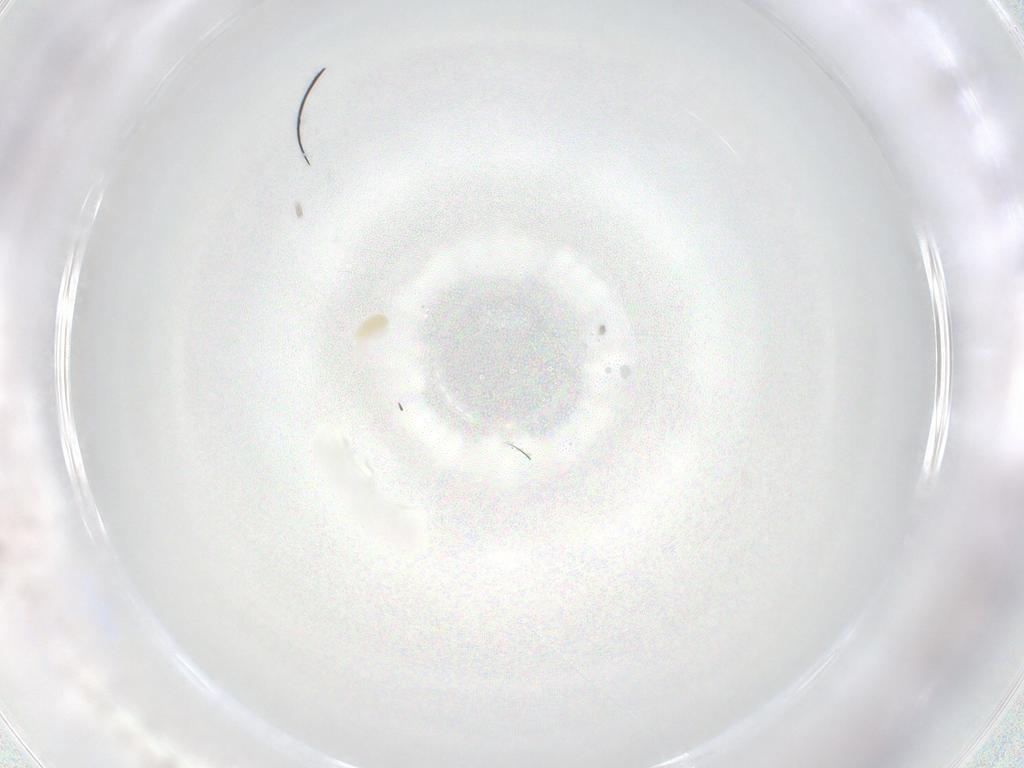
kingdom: Animalia
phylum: Arthropoda
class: Arachnida
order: Trombidiformes
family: Eupodidae
